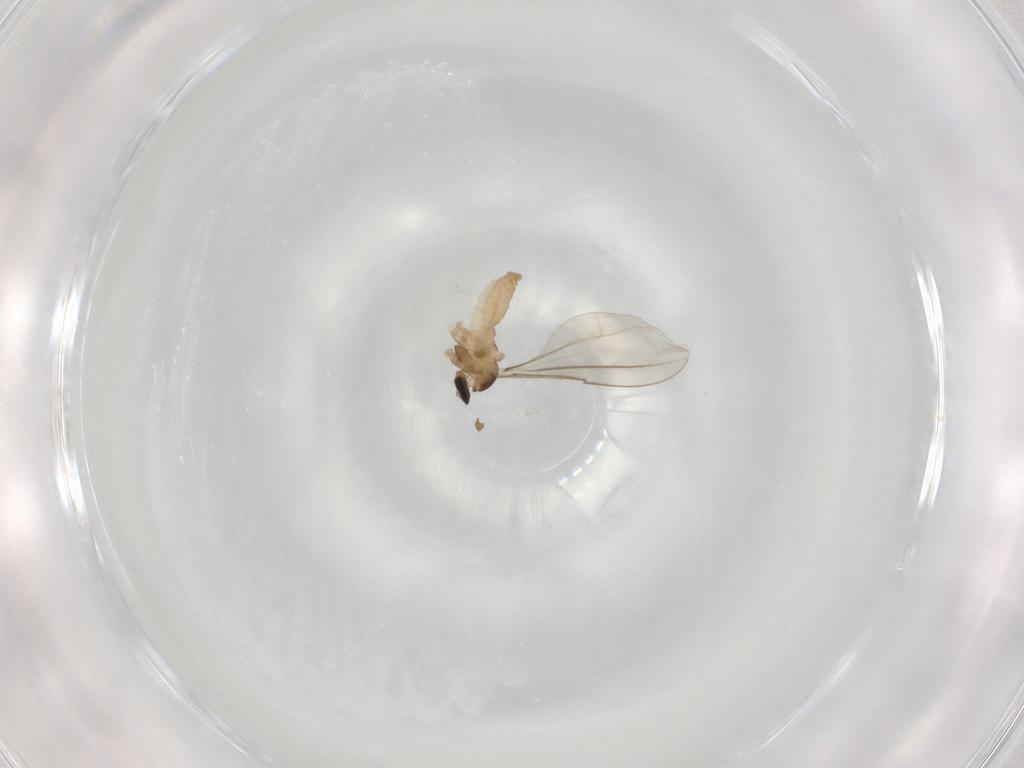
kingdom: Animalia
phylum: Arthropoda
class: Insecta
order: Diptera
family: Cecidomyiidae
